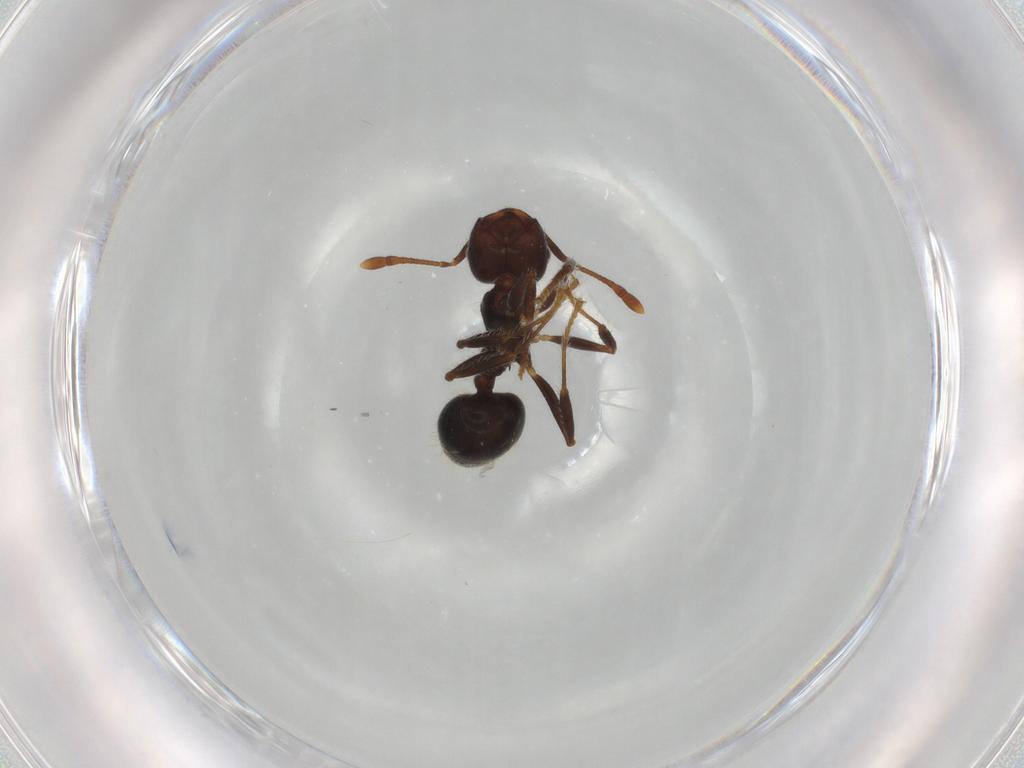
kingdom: Animalia
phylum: Arthropoda
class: Insecta
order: Hymenoptera
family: Formicidae
